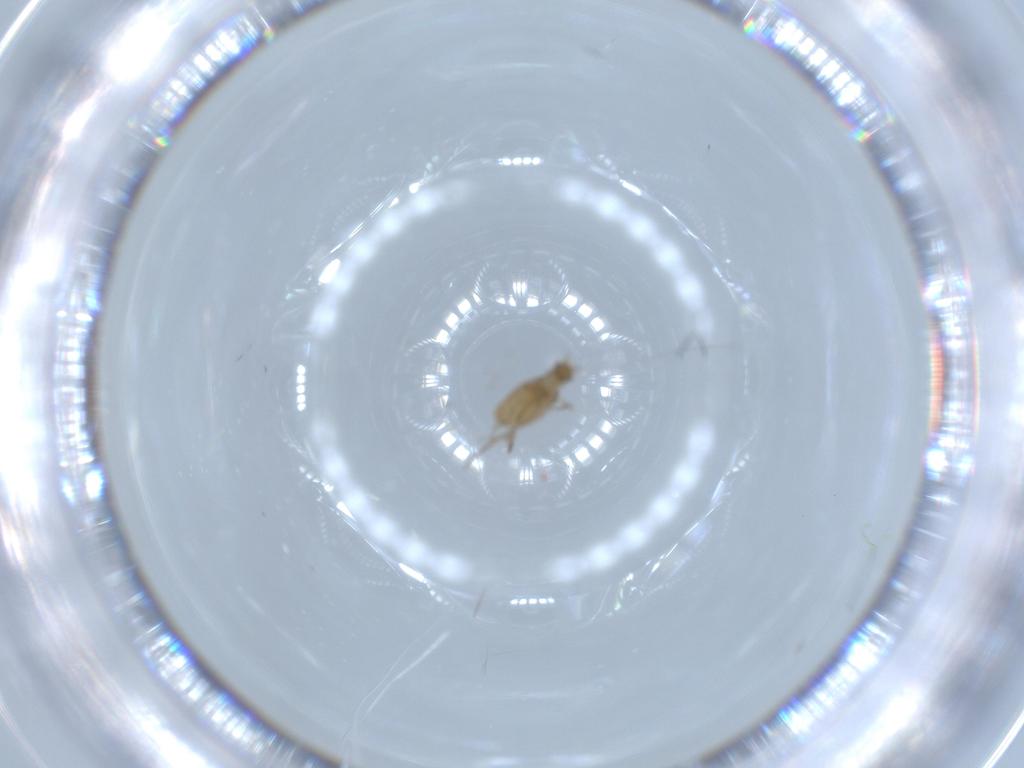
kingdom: Animalia
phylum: Arthropoda
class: Insecta
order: Diptera
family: Phoridae
